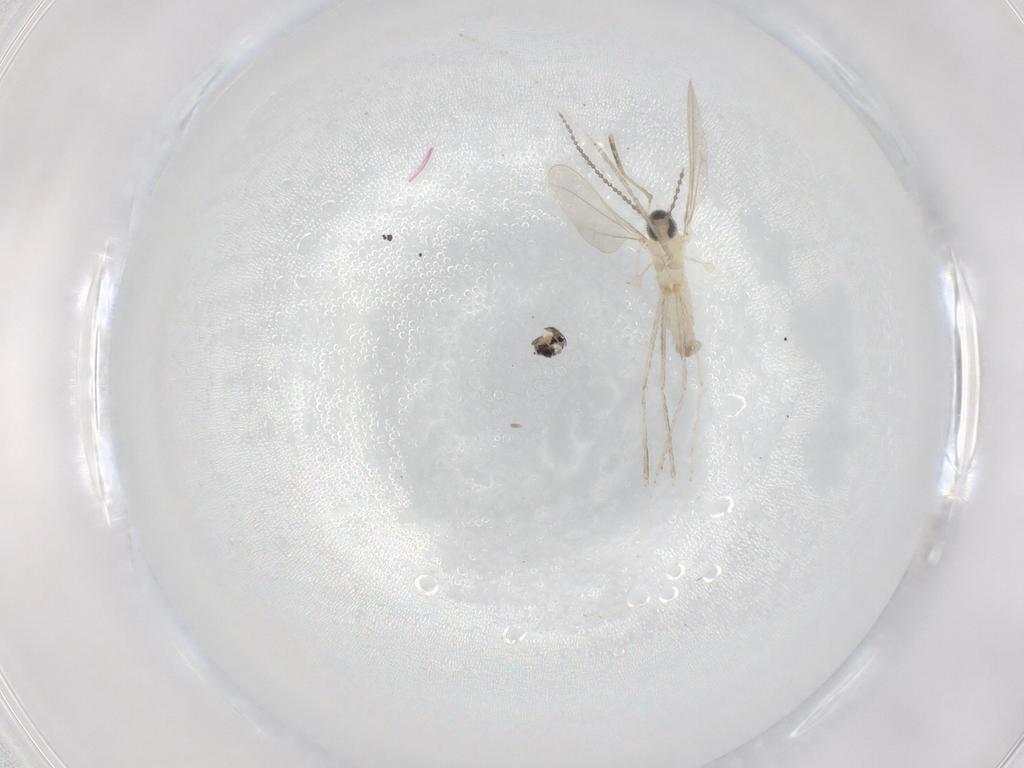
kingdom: Animalia
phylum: Arthropoda
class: Insecta
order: Diptera
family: Sciaridae
